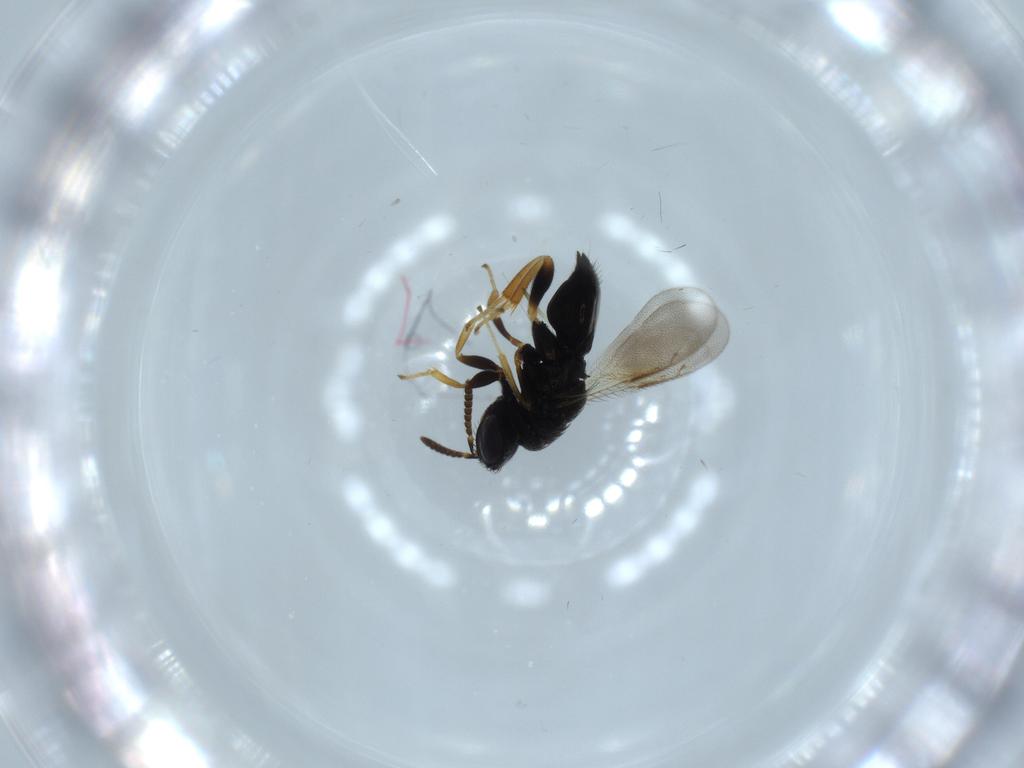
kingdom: Animalia
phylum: Arthropoda
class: Insecta
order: Hymenoptera
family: Pteromalidae
